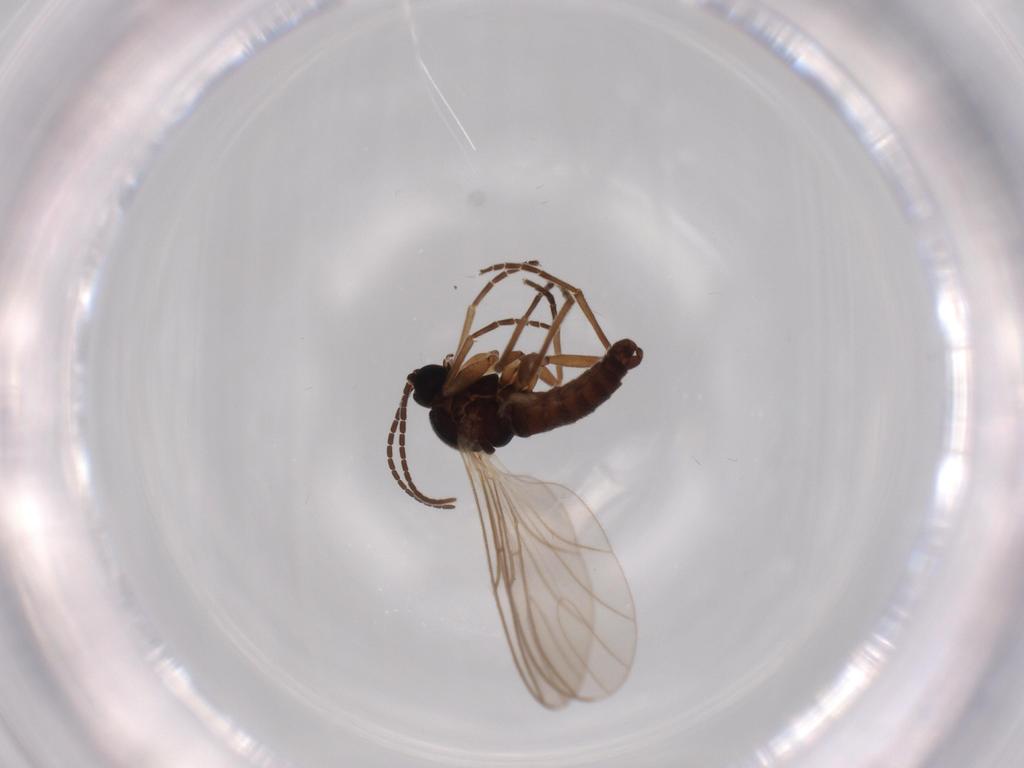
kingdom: Animalia
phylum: Arthropoda
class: Insecta
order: Diptera
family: Sciaridae
